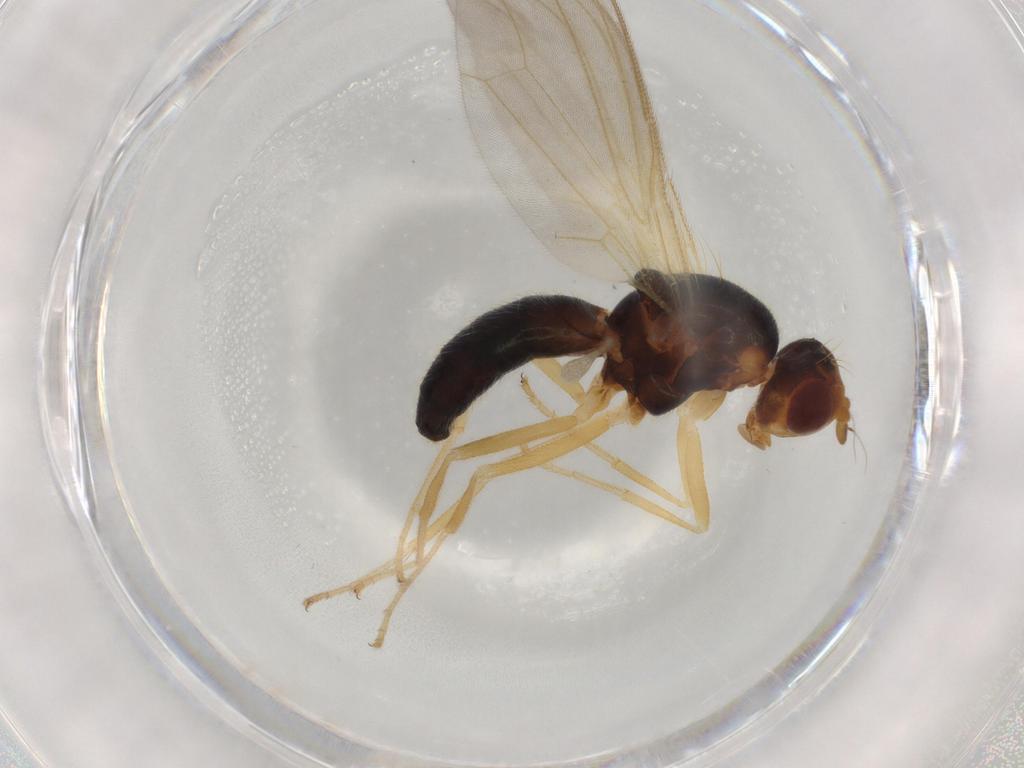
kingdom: Animalia
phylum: Arthropoda
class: Insecta
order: Diptera
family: Hybotidae
